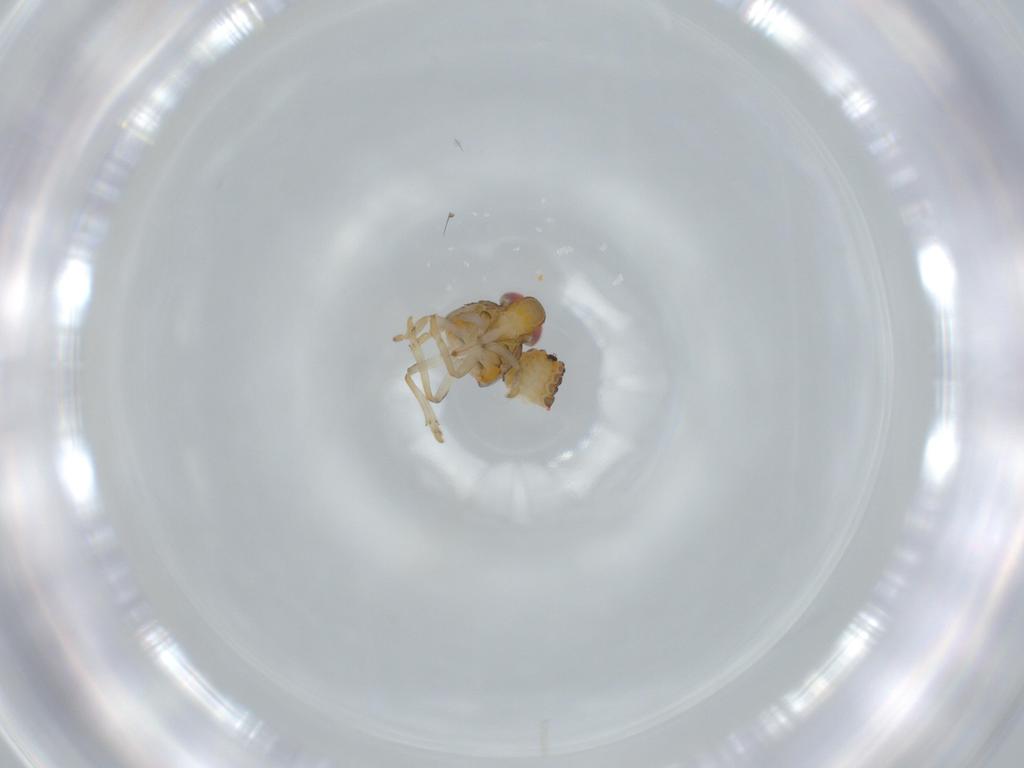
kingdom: Animalia
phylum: Arthropoda
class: Insecta
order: Hemiptera
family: Issidae
